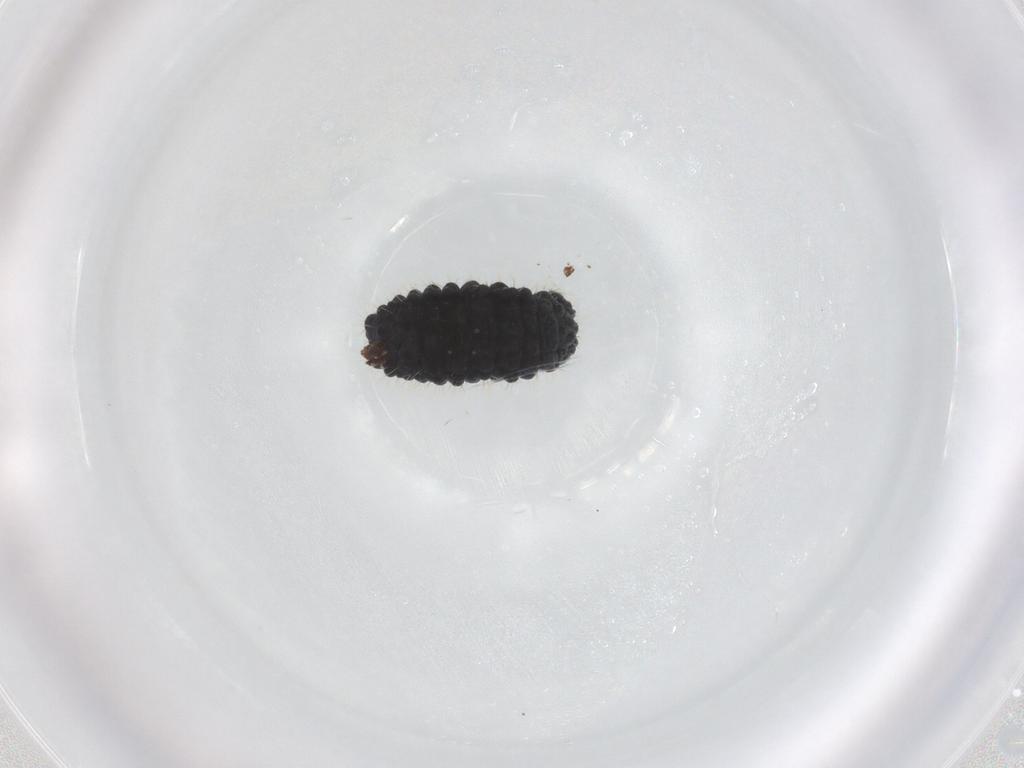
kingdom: Animalia
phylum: Arthropoda
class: Collembola
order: Poduromorpha
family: Neanuridae
